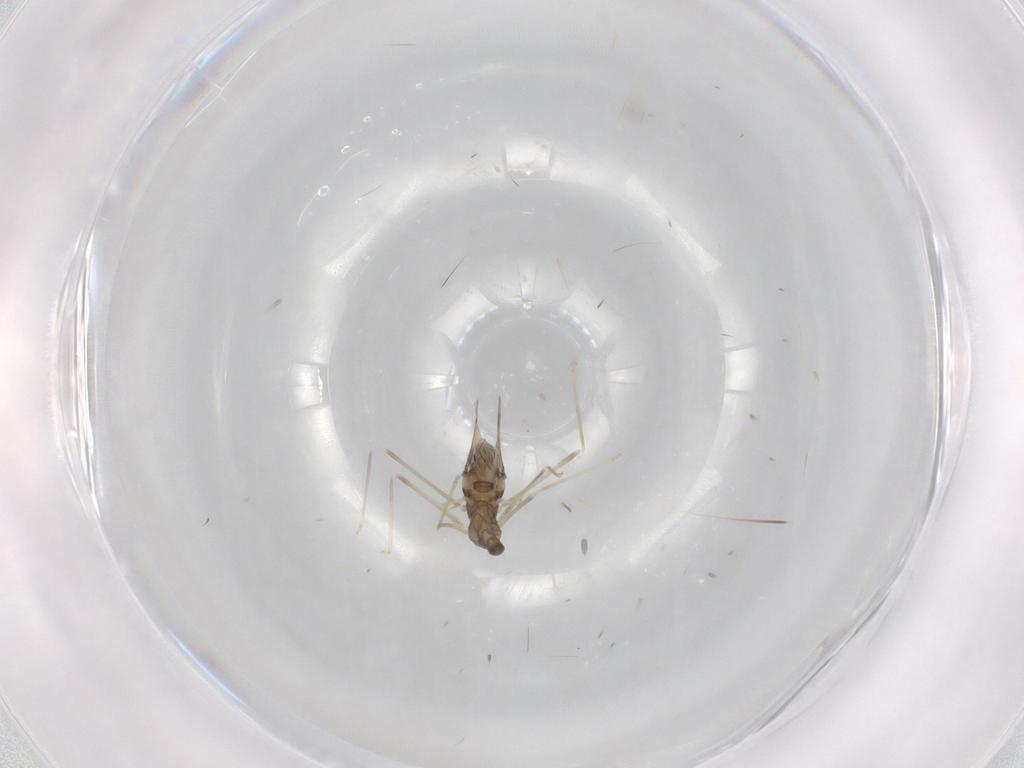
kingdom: Animalia
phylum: Arthropoda
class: Insecta
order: Diptera
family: Cecidomyiidae
